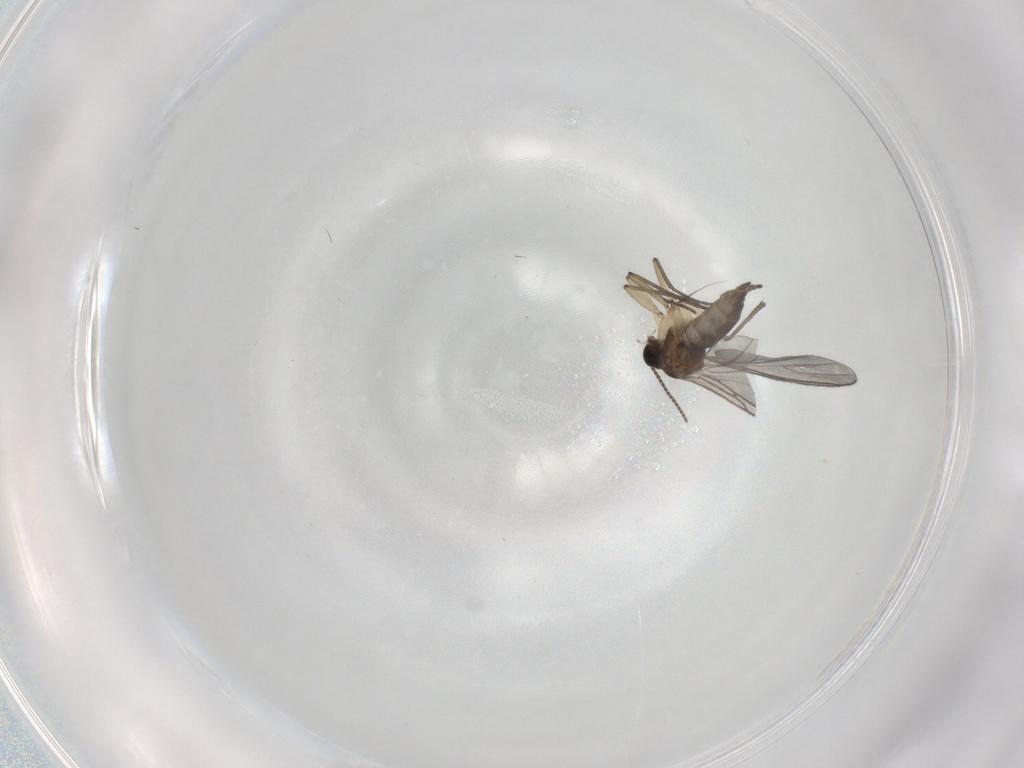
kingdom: Animalia
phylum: Arthropoda
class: Insecta
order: Diptera
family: Sciaridae
